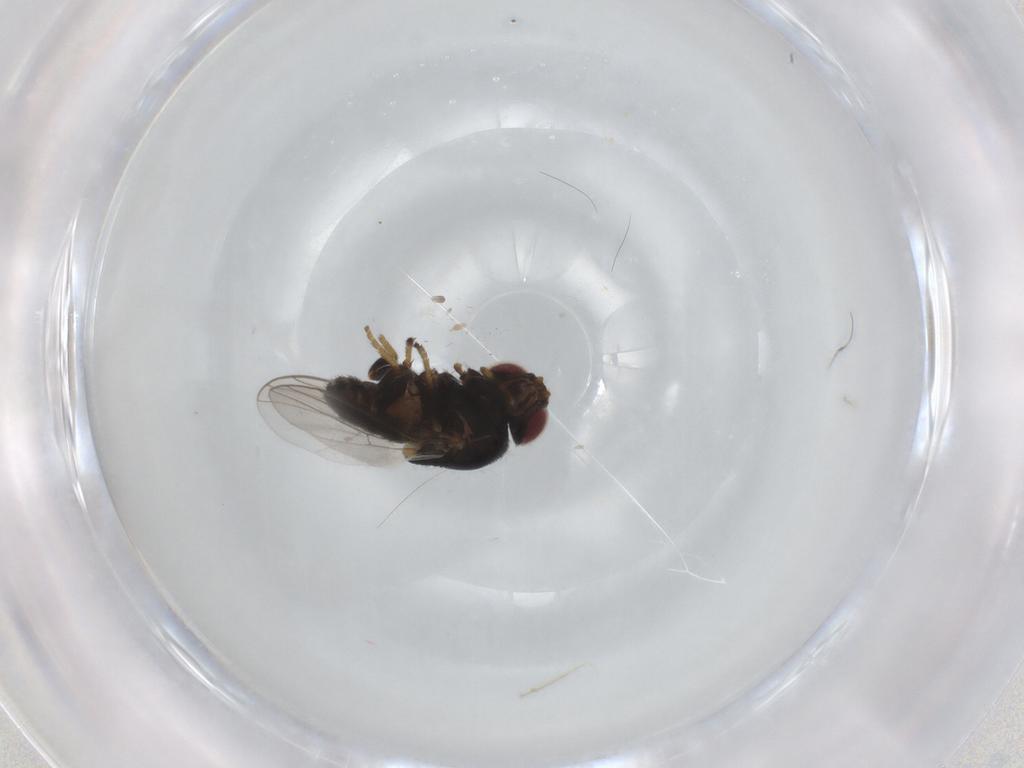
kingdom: Animalia
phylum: Arthropoda
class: Insecta
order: Diptera
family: Chloropidae
